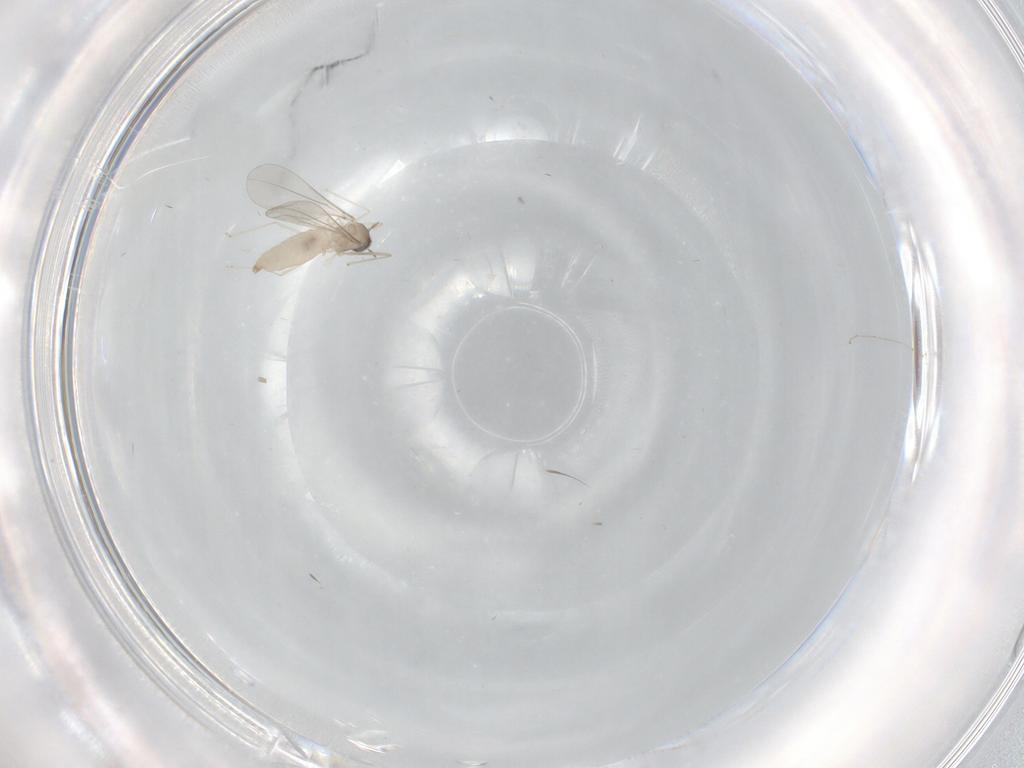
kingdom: Animalia
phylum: Arthropoda
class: Insecta
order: Diptera
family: Cecidomyiidae
